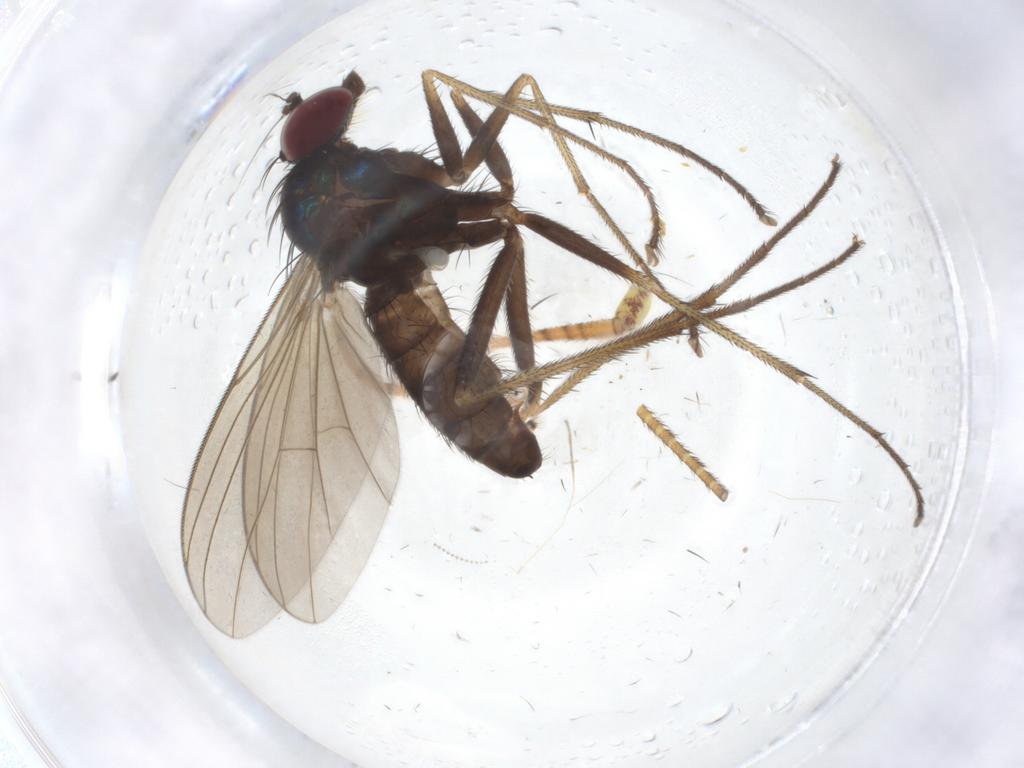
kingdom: Animalia
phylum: Arthropoda
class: Insecta
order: Diptera
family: Dolichopodidae
